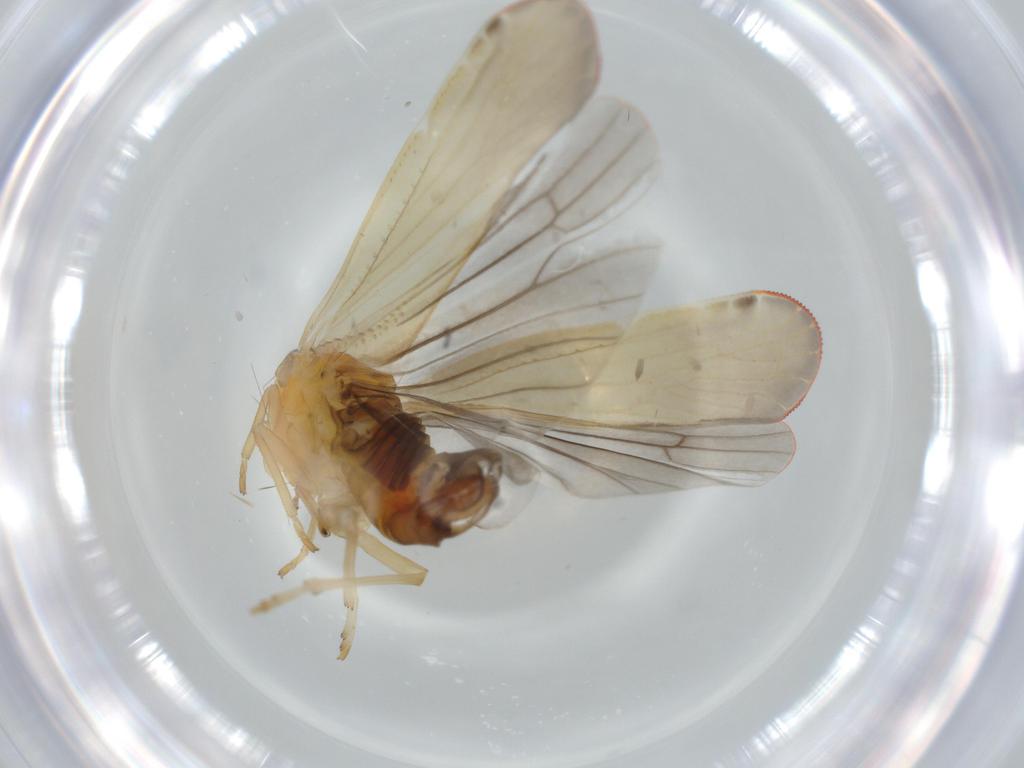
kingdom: Animalia
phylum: Arthropoda
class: Insecta
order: Hemiptera
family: Derbidae
